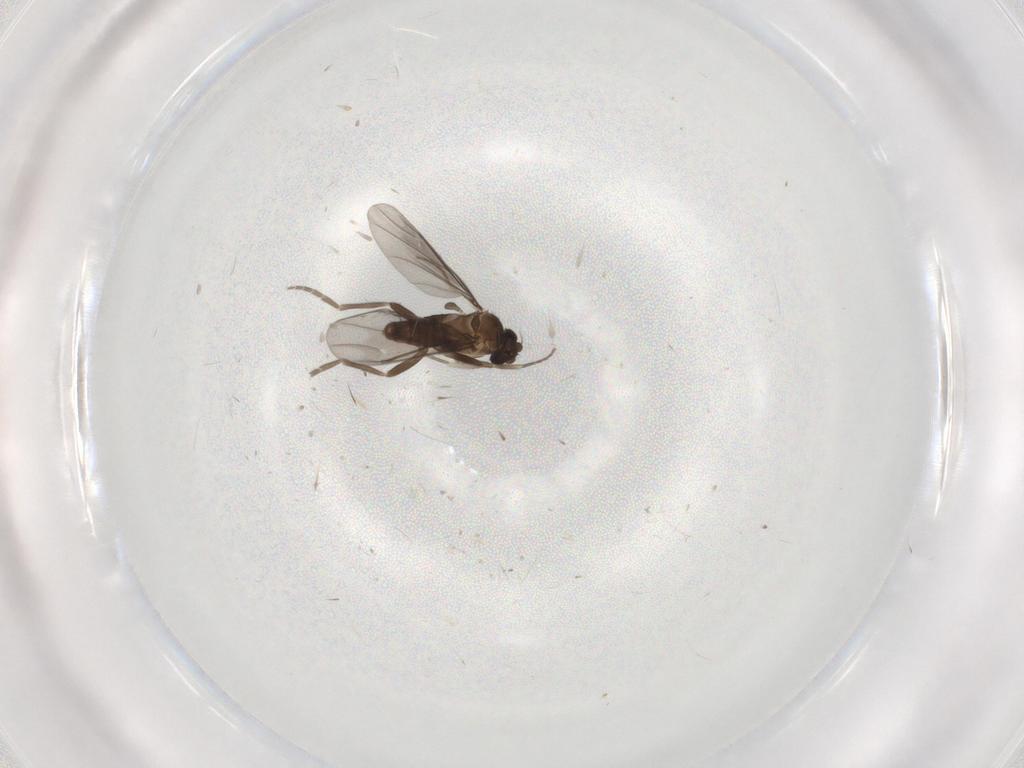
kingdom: Animalia
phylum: Arthropoda
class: Insecta
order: Diptera
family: Phoridae
